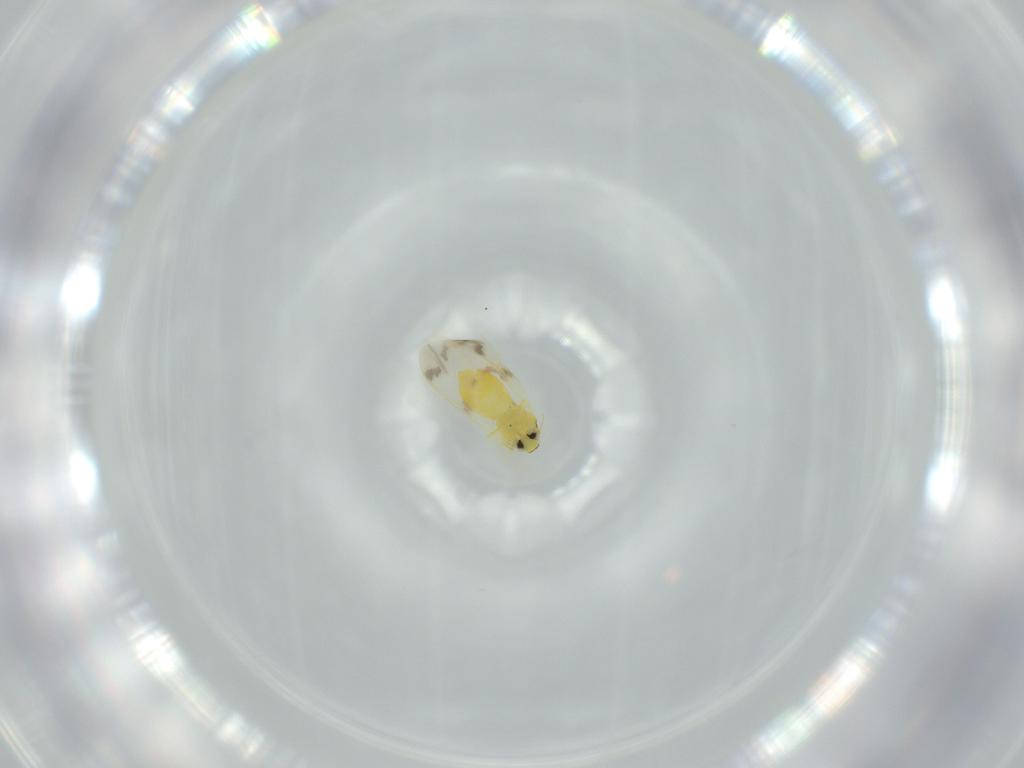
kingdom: Animalia
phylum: Arthropoda
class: Insecta
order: Hemiptera
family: Aleyrodidae
